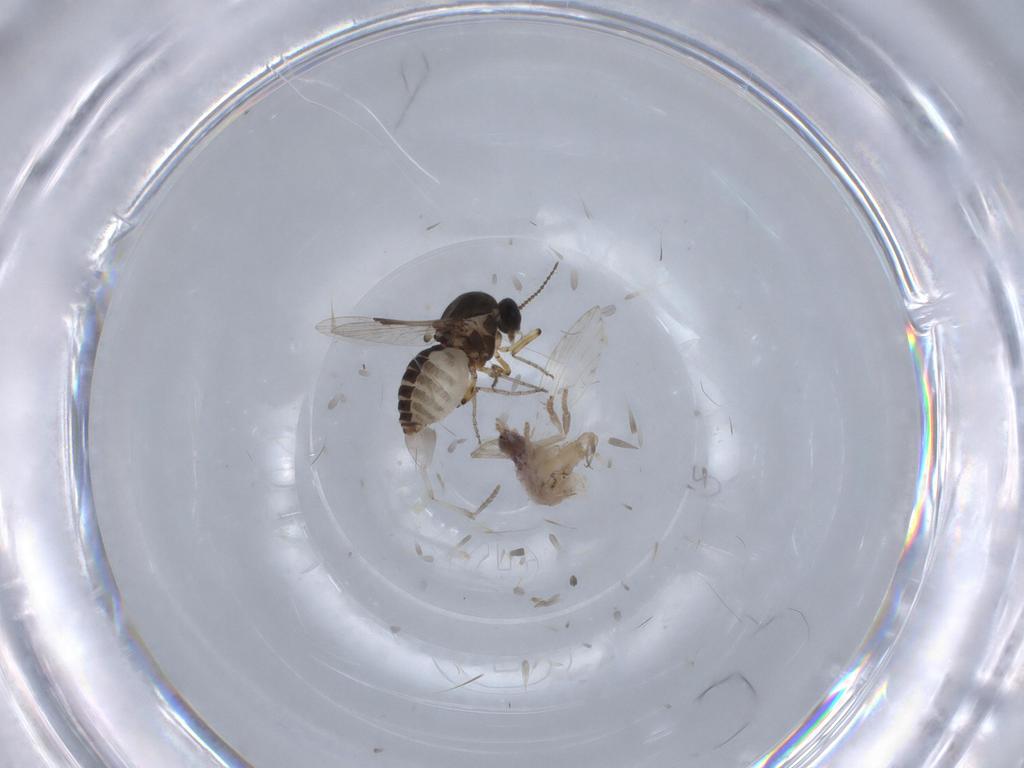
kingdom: Animalia
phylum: Arthropoda
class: Insecta
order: Diptera
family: Psychodidae
